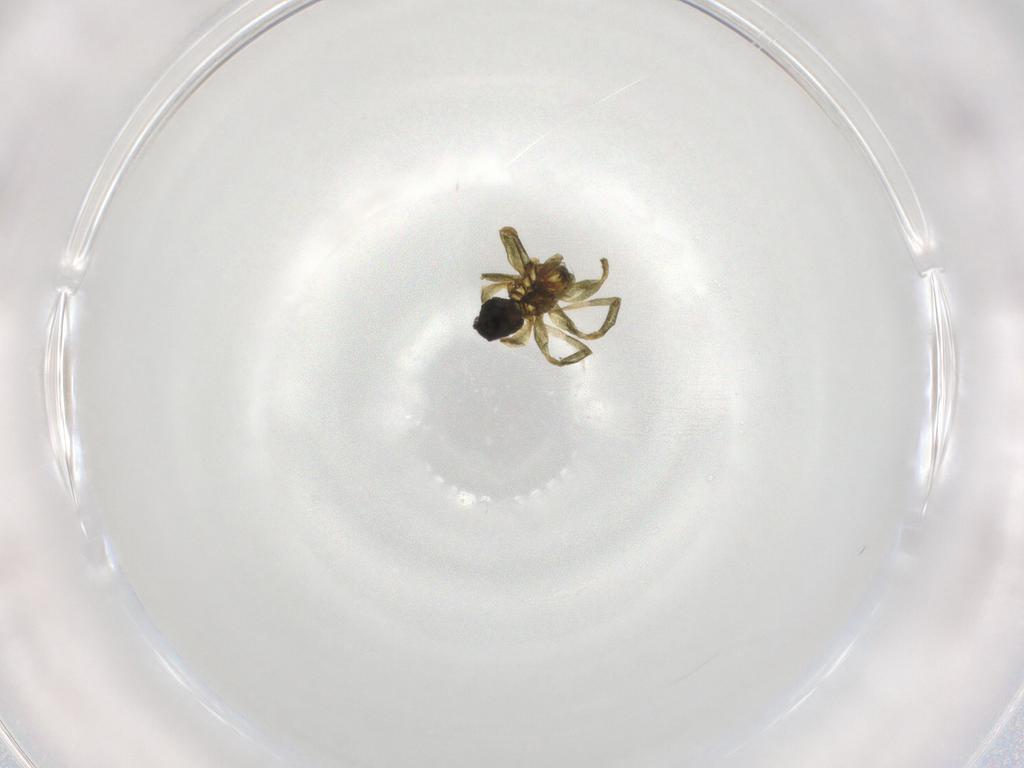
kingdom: Animalia
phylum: Arthropoda
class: Arachnida
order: Araneae
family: Linyphiidae
